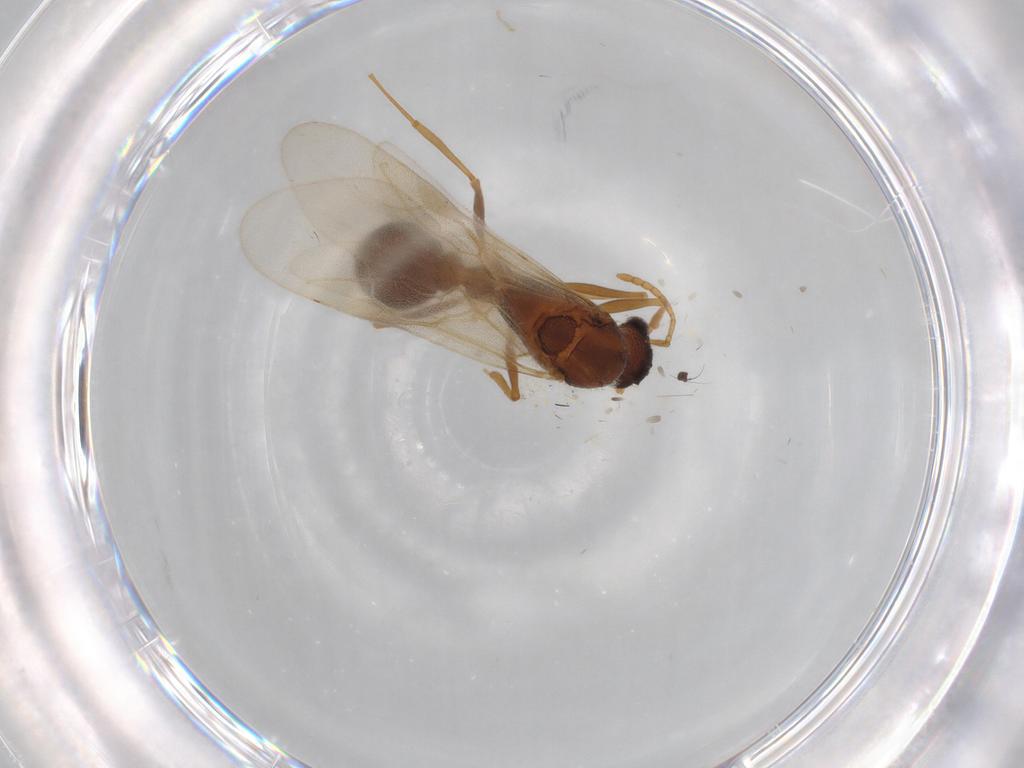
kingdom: Animalia
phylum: Arthropoda
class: Insecta
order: Hymenoptera
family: Formicidae
